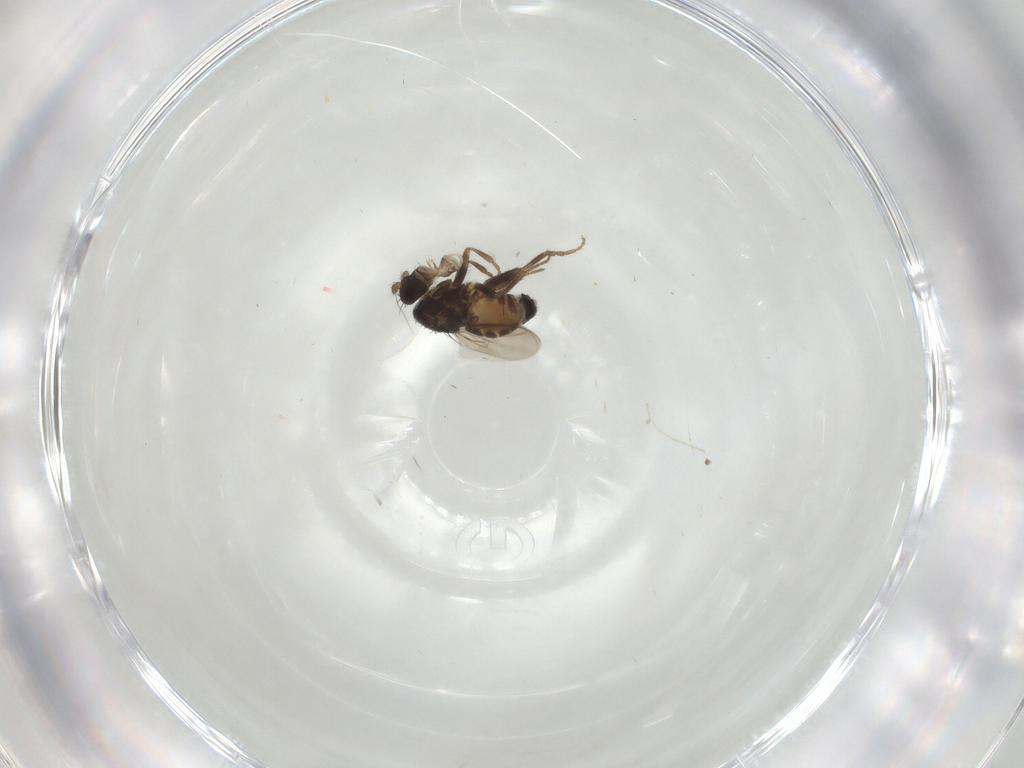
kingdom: Animalia
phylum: Arthropoda
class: Insecta
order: Diptera
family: Sphaeroceridae
